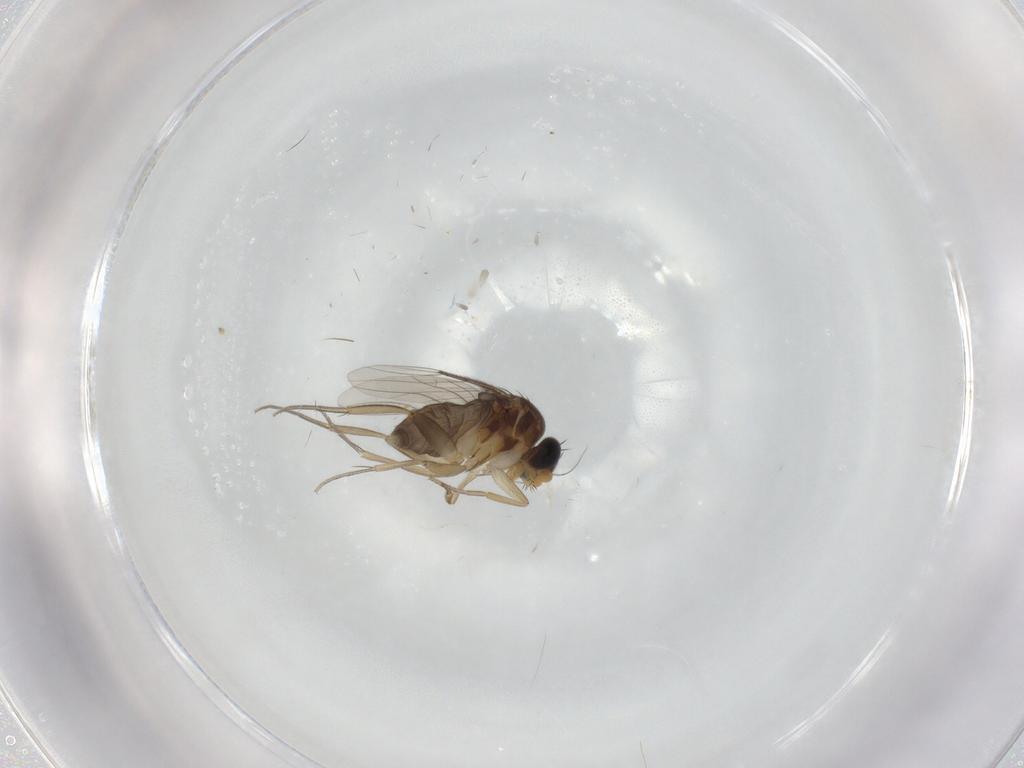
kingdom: Animalia
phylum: Arthropoda
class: Insecta
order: Diptera
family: Phoridae
